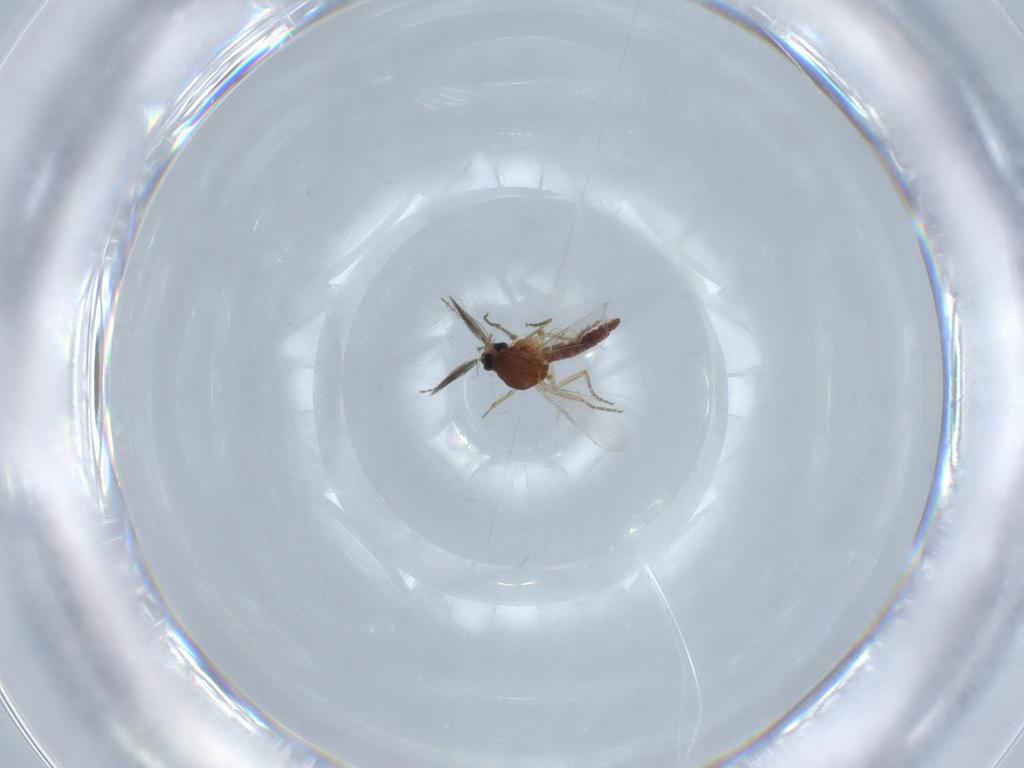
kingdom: Animalia
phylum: Arthropoda
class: Insecta
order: Diptera
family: Ceratopogonidae
